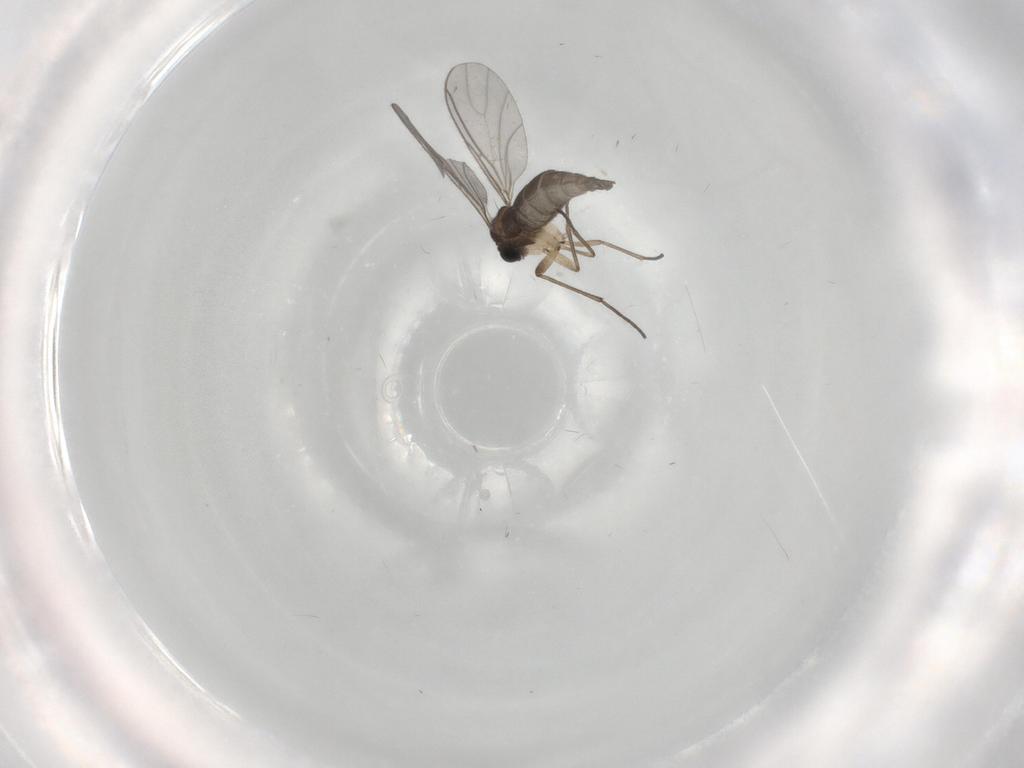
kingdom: Animalia
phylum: Arthropoda
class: Insecta
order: Diptera
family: Sciaridae
